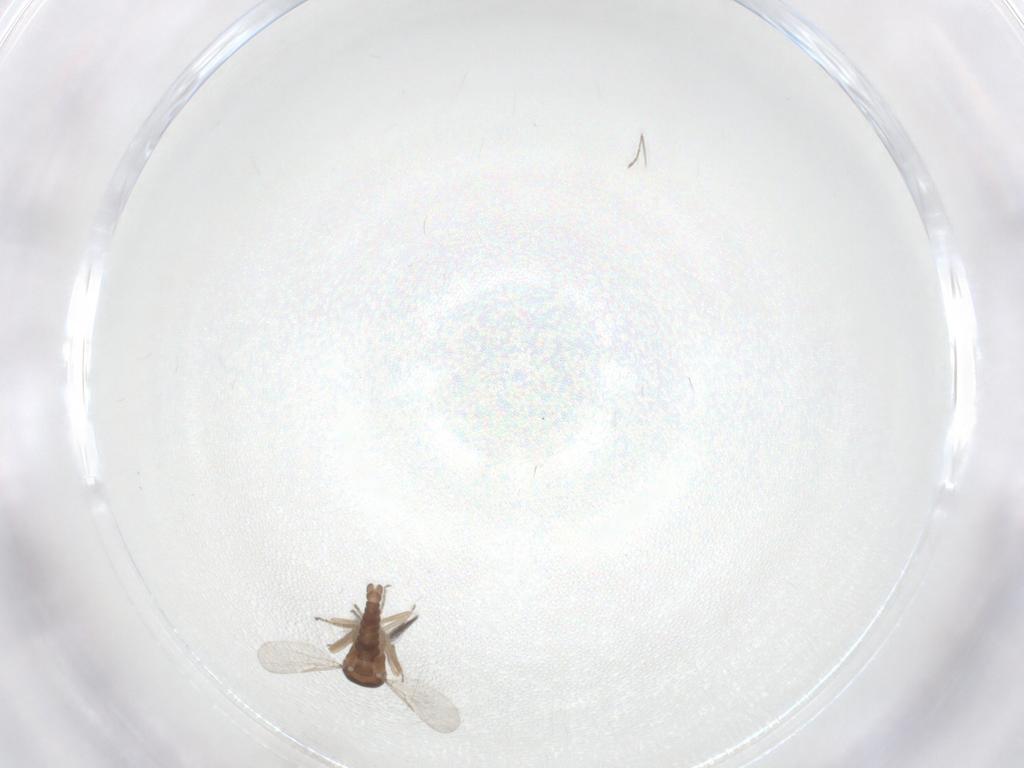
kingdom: Animalia
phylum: Arthropoda
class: Insecta
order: Diptera
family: Ceratopogonidae
